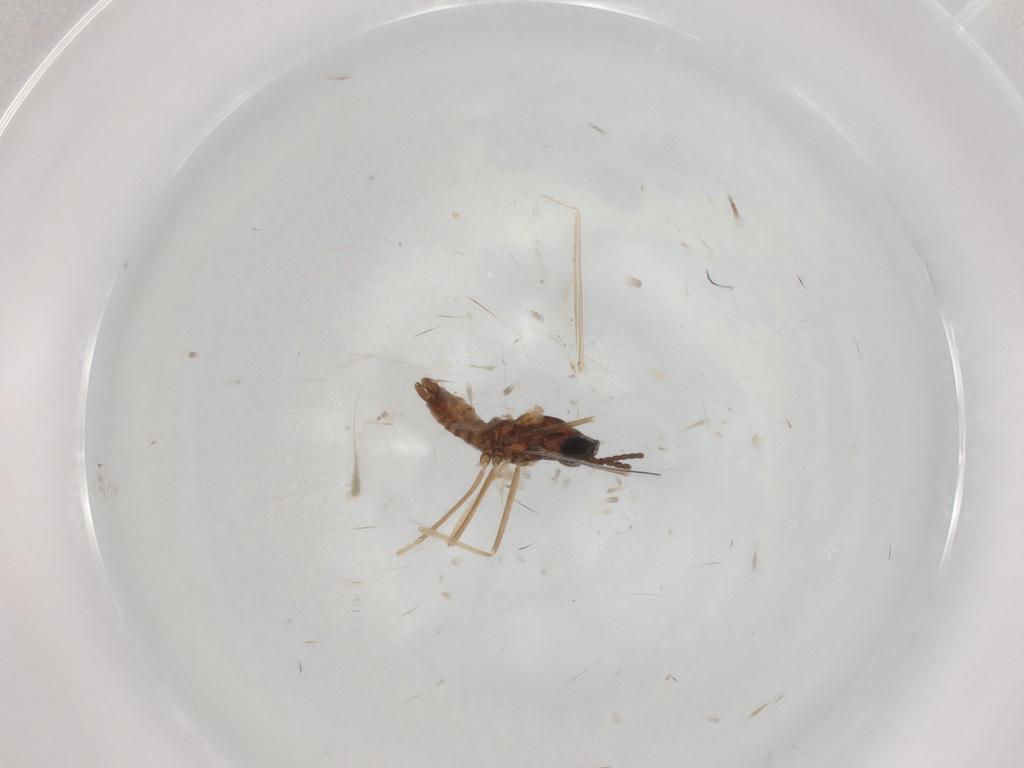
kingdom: Animalia
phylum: Arthropoda
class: Insecta
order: Diptera
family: Cecidomyiidae
